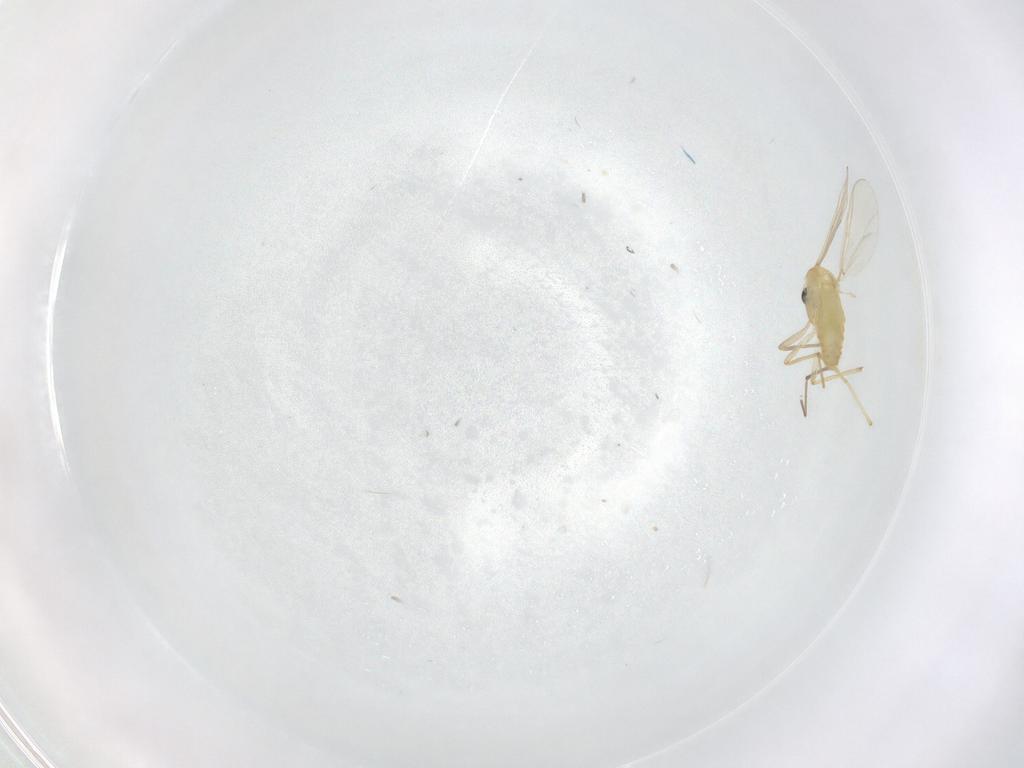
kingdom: Animalia
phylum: Arthropoda
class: Insecta
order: Diptera
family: Chironomidae
